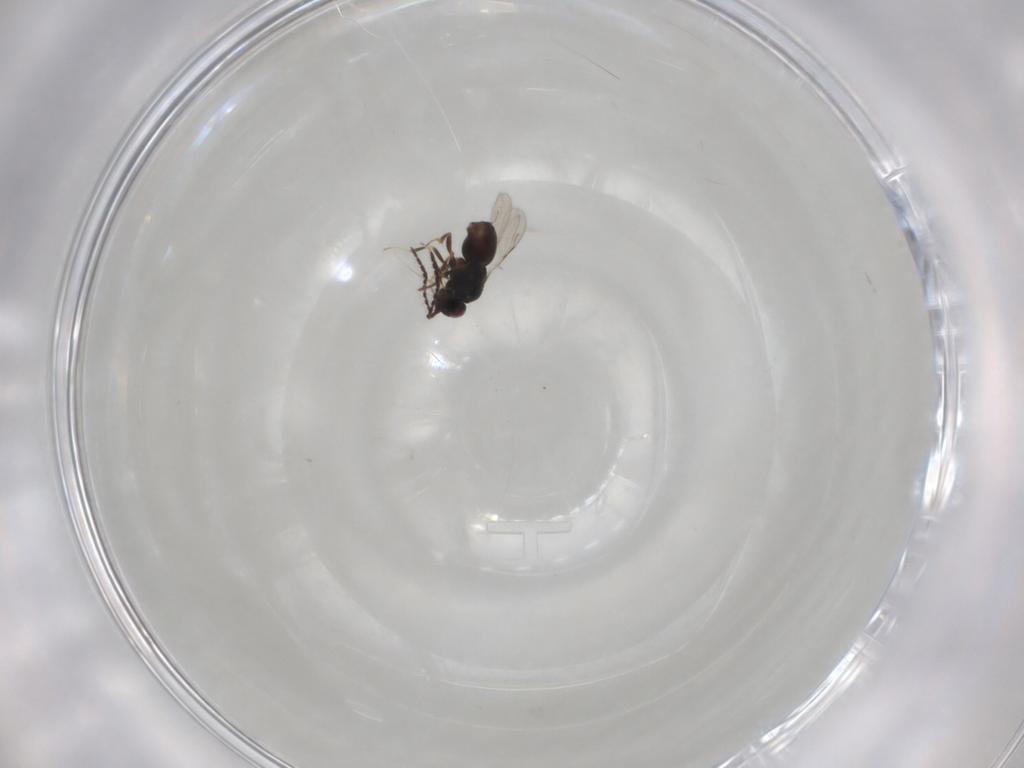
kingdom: Animalia
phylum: Arthropoda
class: Insecta
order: Hymenoptera
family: Ceraphronidae
